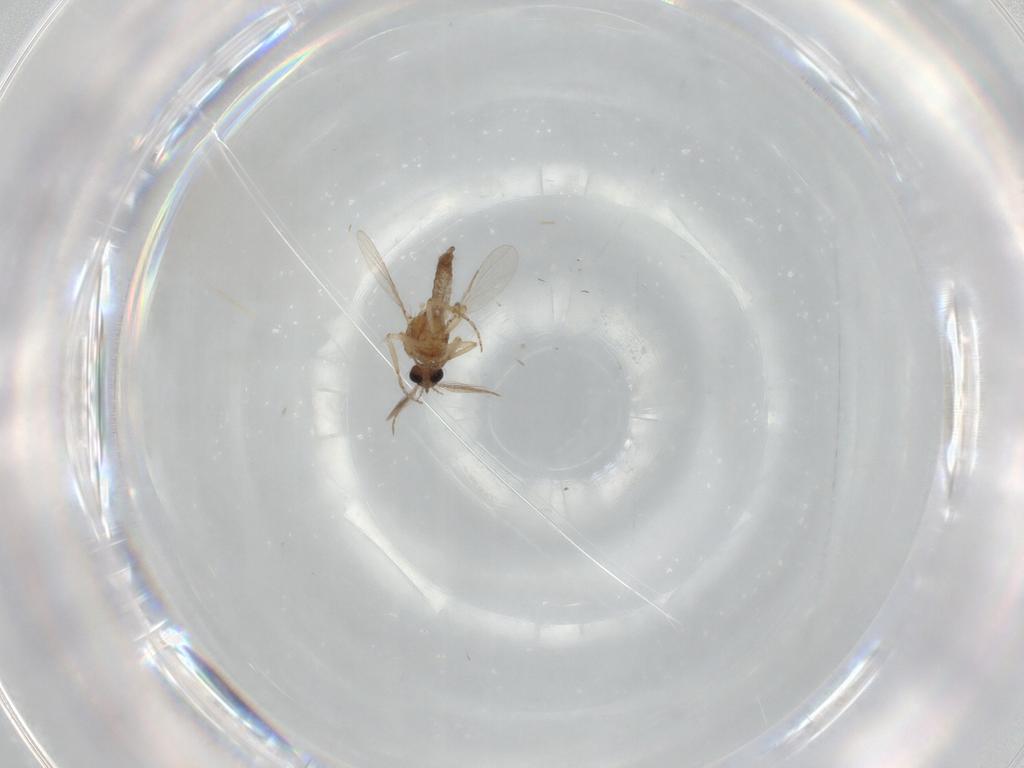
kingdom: Animalia
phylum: Arthropoda
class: Insecta
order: Diptera
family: Ceratopogonidae
